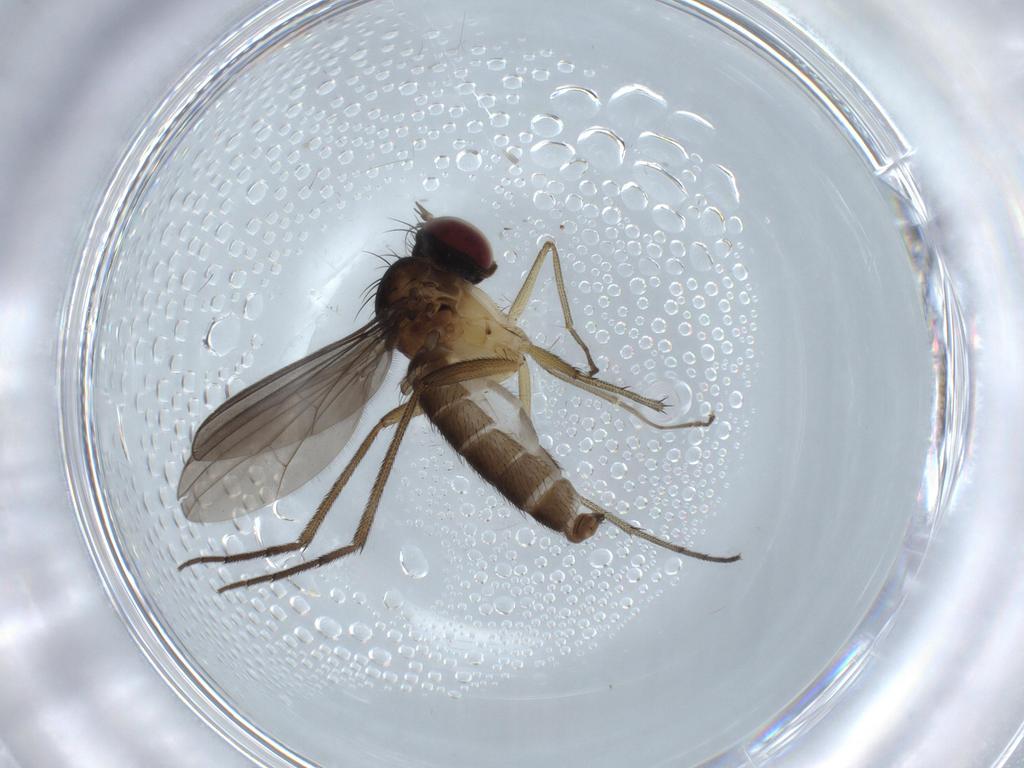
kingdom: Animalia
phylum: Arthropoda
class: Insecta
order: Diptera
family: Dolichopodidae
